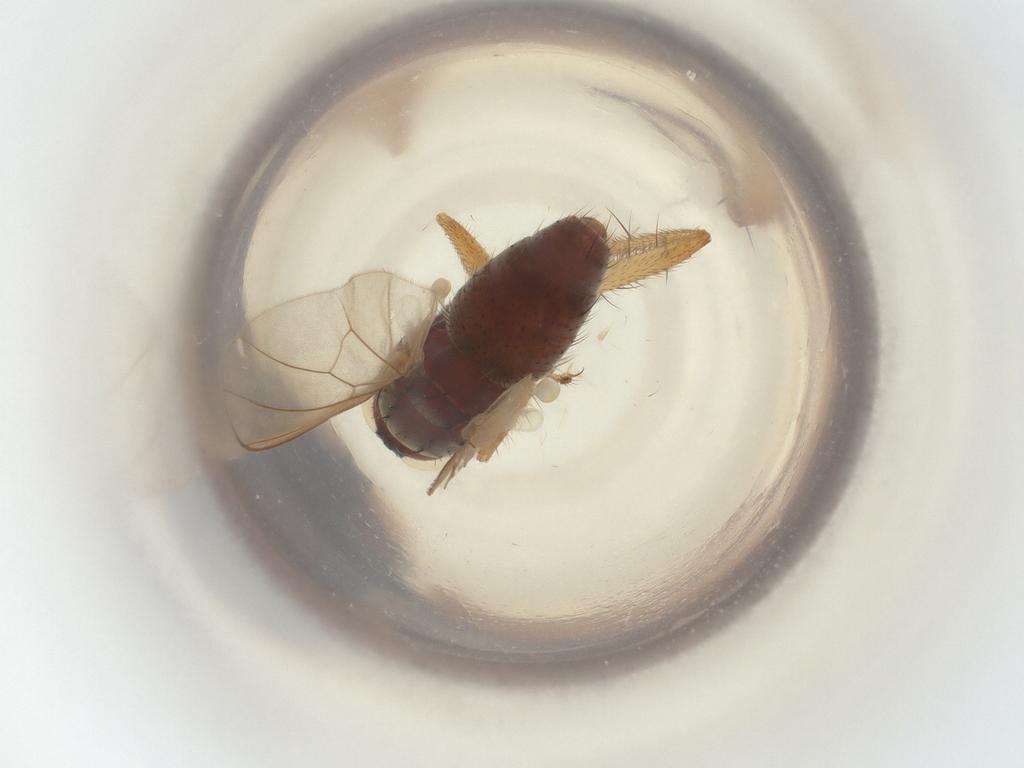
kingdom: Animalia
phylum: Arthropoda
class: Insecta
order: Diptera
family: Muscidae
